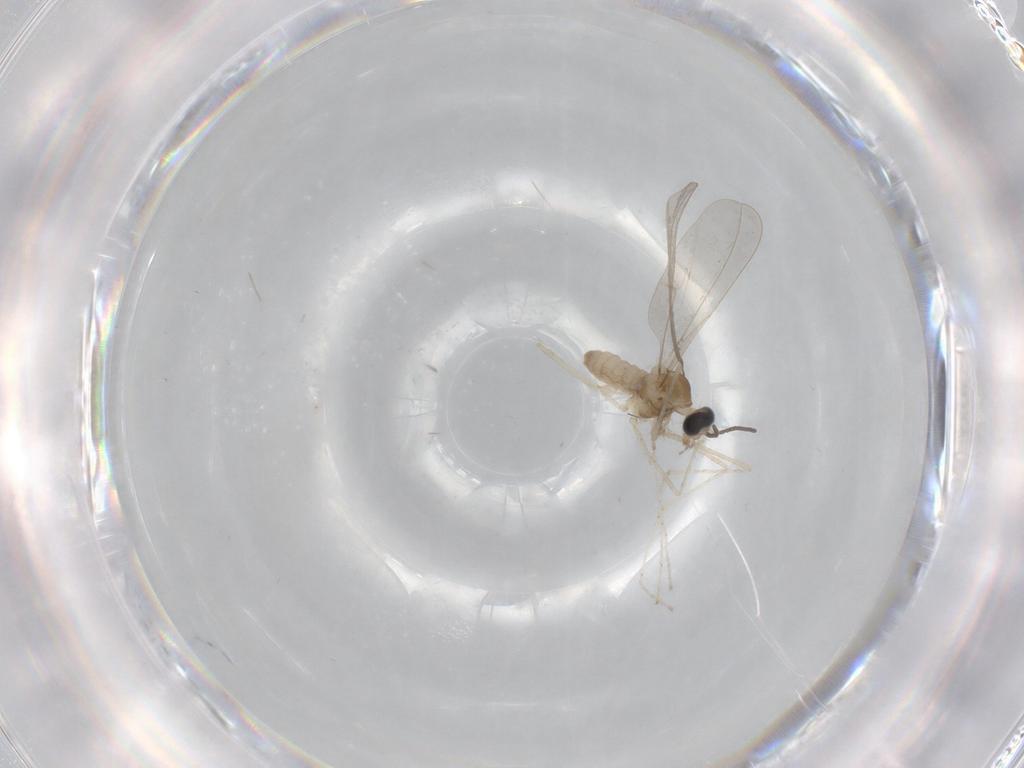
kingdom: Animalia
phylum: Arthropoda
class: Insecta
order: Diptera
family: Cecidomyiidae
